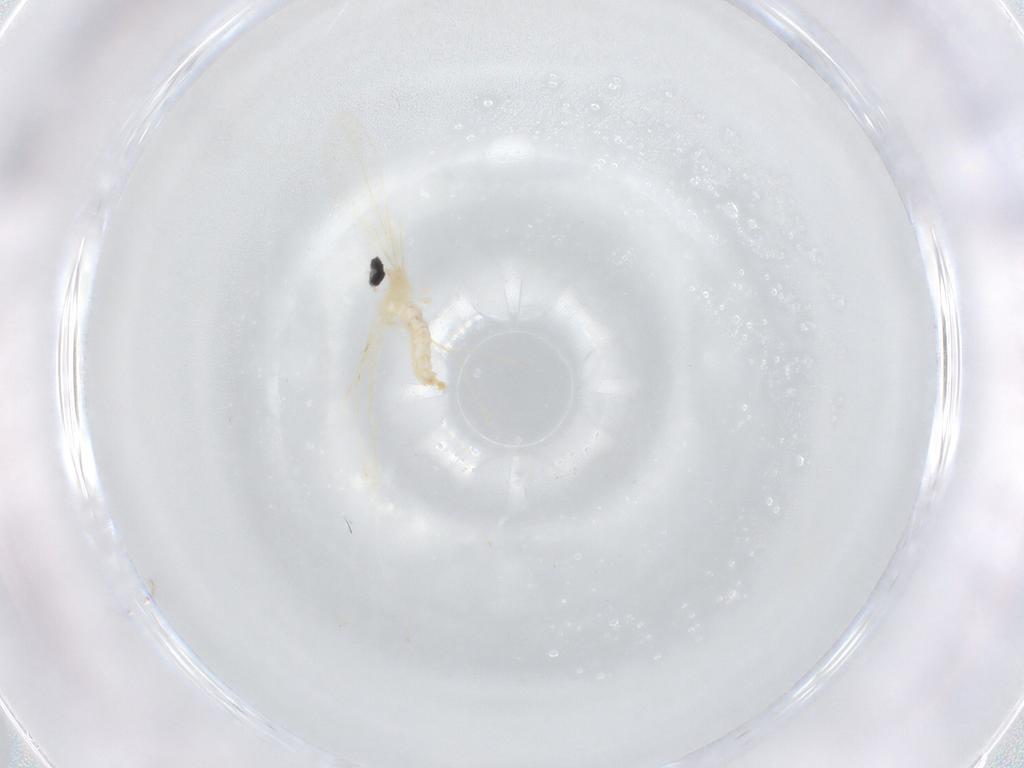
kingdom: Animalia
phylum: Arthropoda
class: Insecta
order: Diptera
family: Cecidomyiidae
